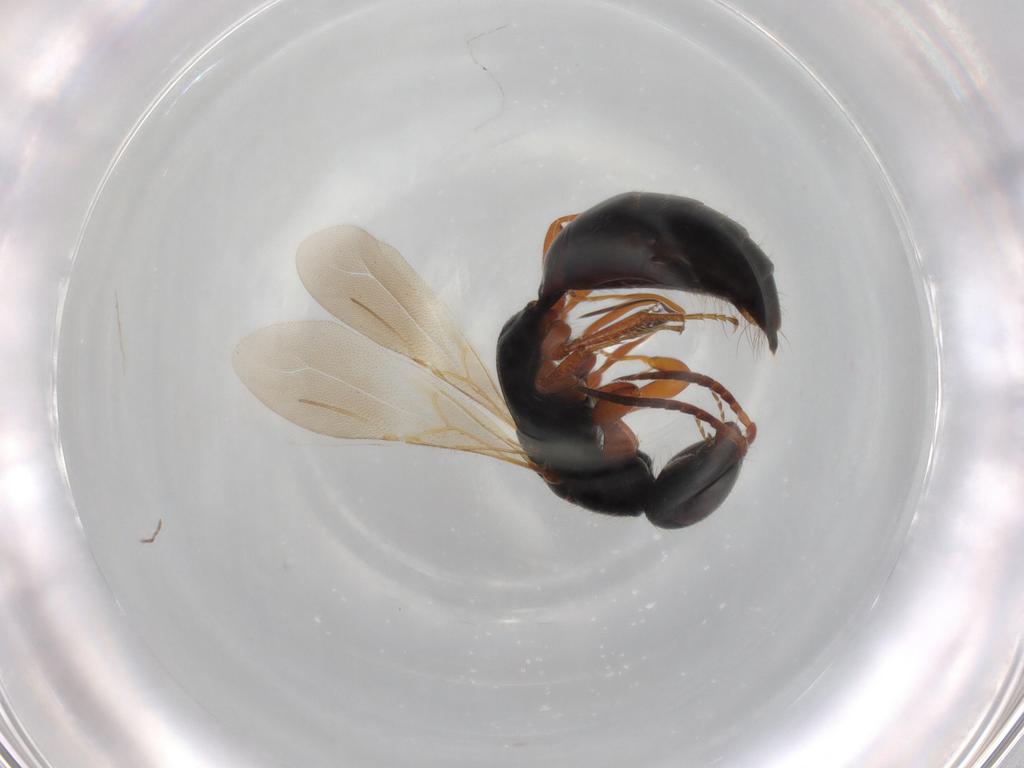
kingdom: Animalia
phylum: Arthropoda
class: Insecta
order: Hymenoptera
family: Bethylidae
